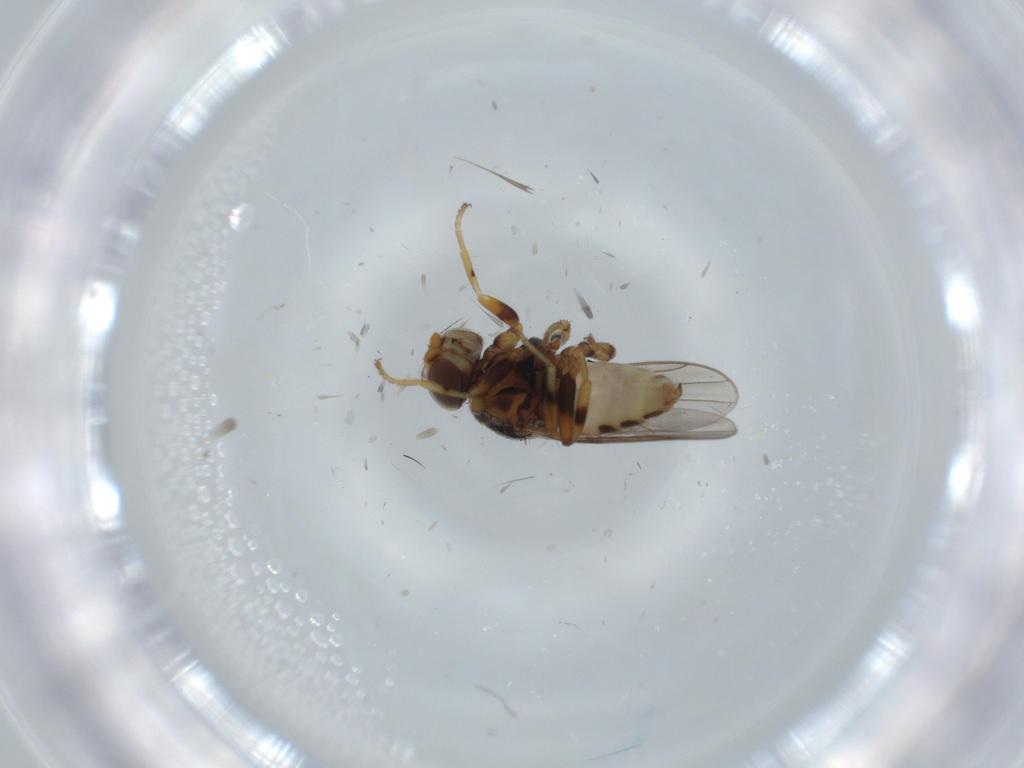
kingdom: Animalia
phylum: Arthropoda
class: Insecta
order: Diptera
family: Chloropidae
